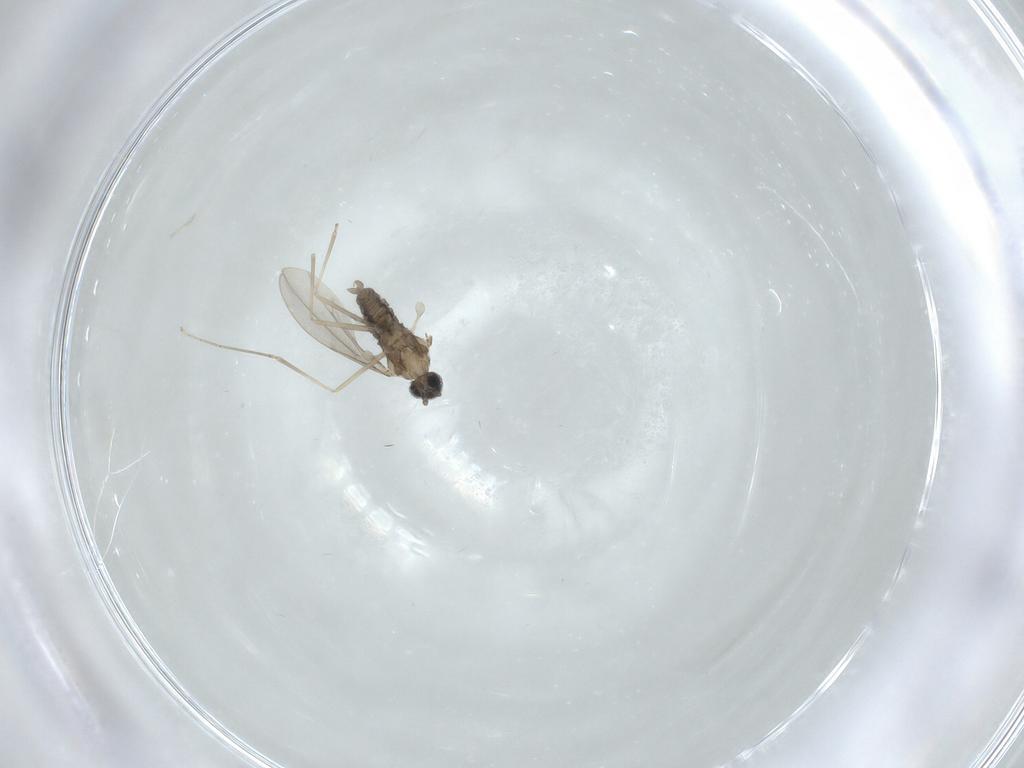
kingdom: Animalia
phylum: Arthropoda
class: Insecta
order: Diptera
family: Cecidomyiidae
